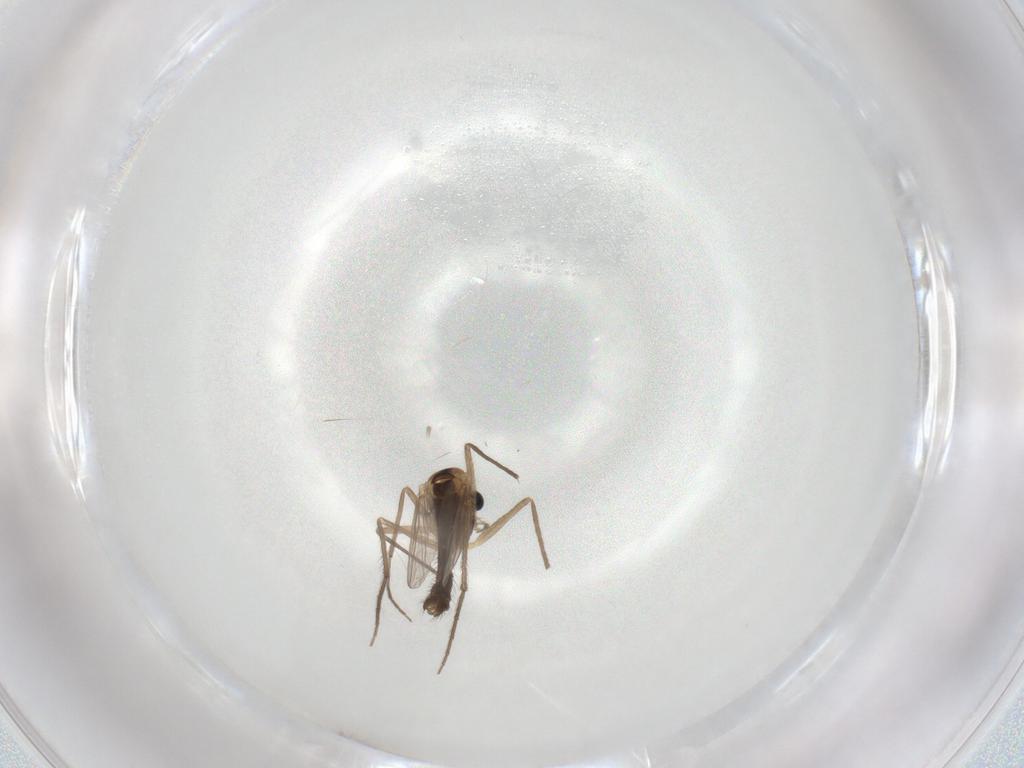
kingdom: Animalia
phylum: Arthropoda
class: Insecta
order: Diptera
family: Chironomidae
